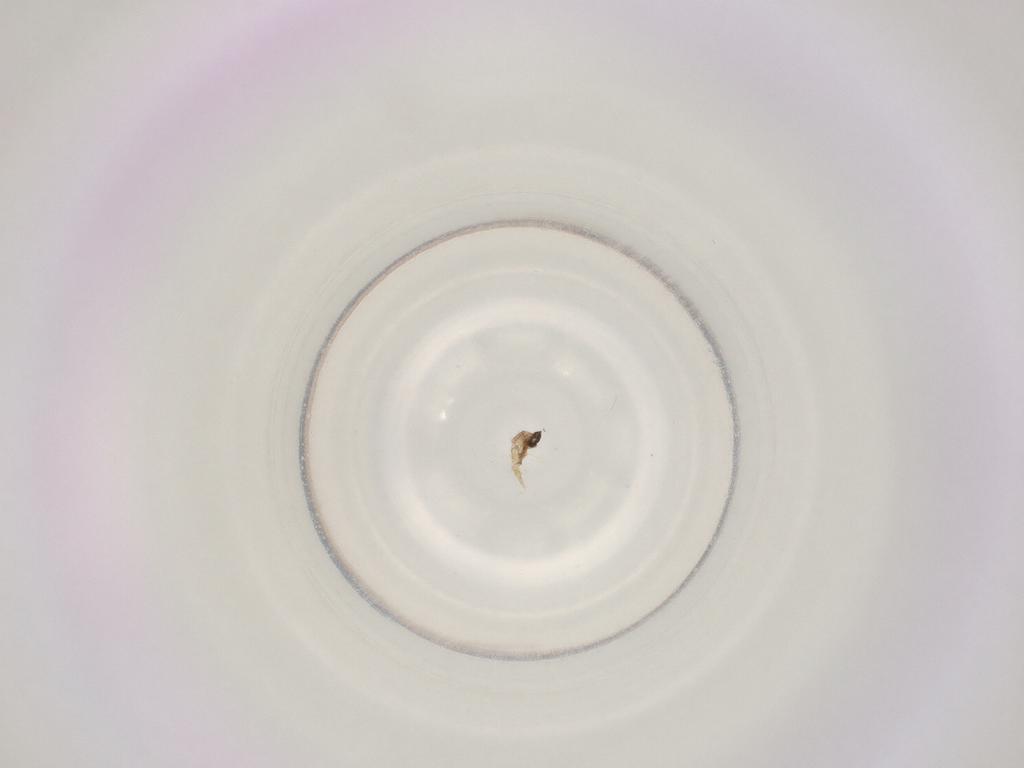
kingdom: Animalia
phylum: Arthropoda
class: Insecta
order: Diptera
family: Cecidomyiidae
